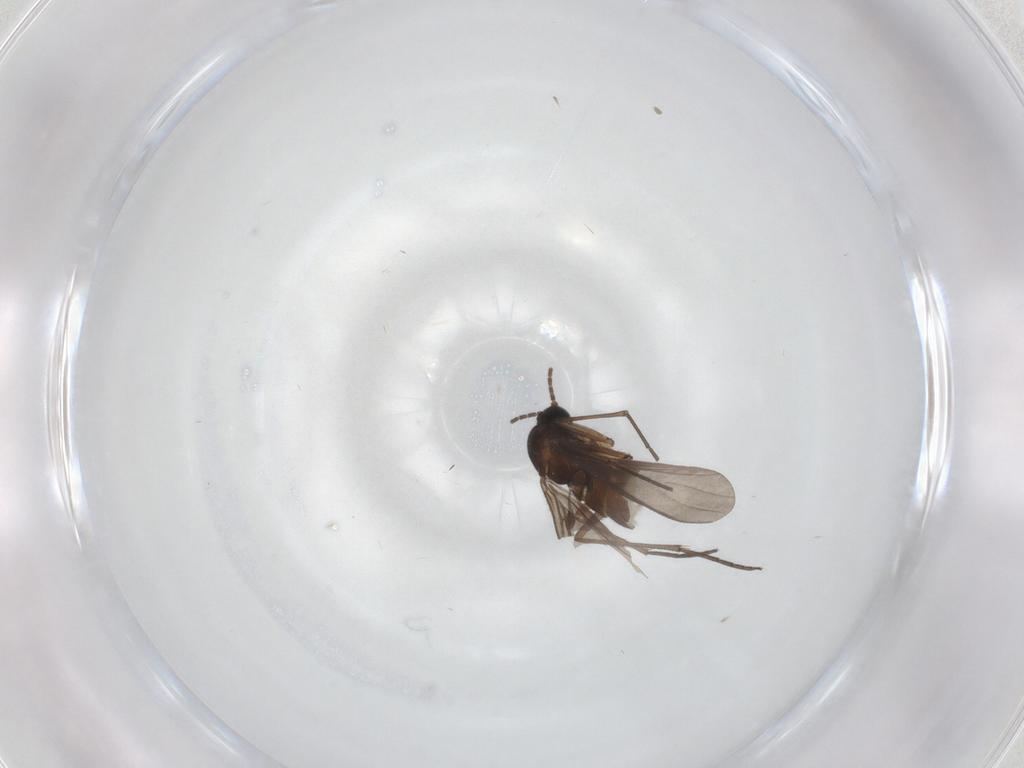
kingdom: Animalia
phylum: Arthropoda
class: Insecta
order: Diptera
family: Sciaridae
